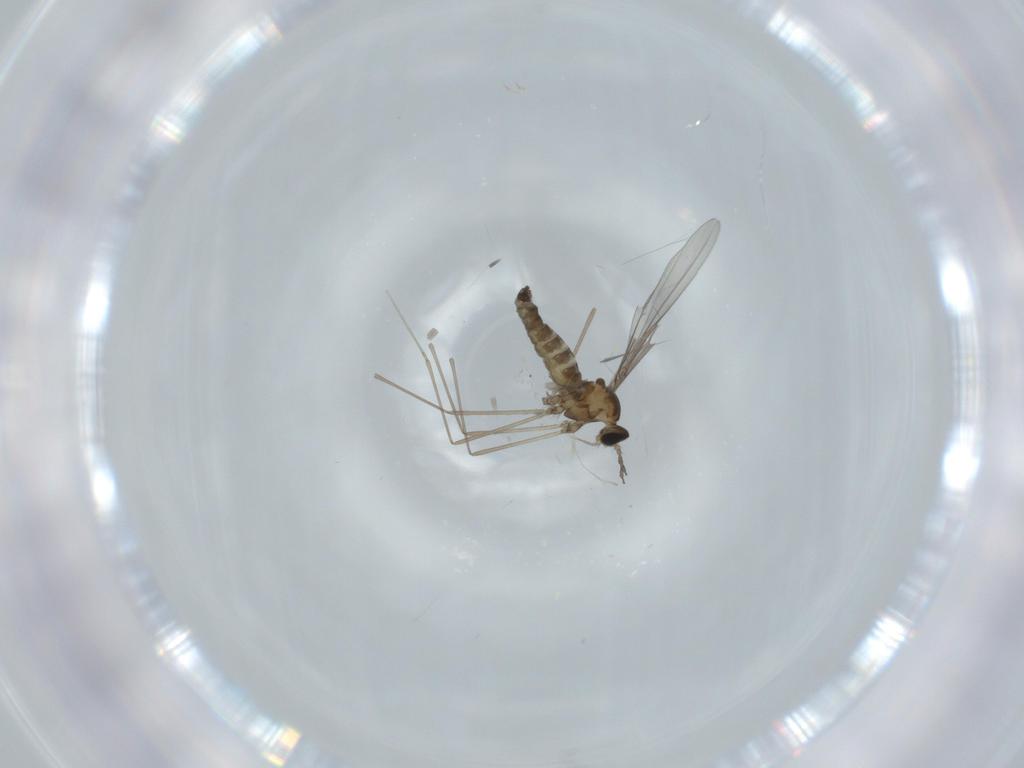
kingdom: Animalia
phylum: Arthropoda
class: Insecta
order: Diptera
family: Milichiidae
